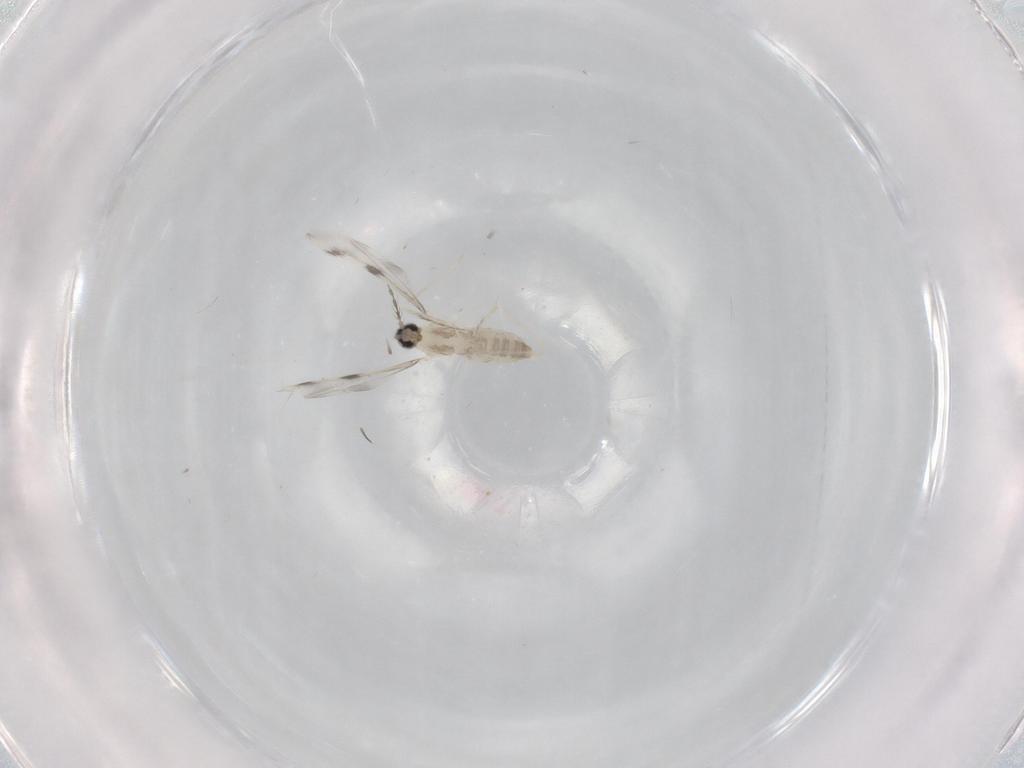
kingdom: Animalia
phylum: Arthropoda
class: Insecta
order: Diptera
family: Cecidomyiidae
